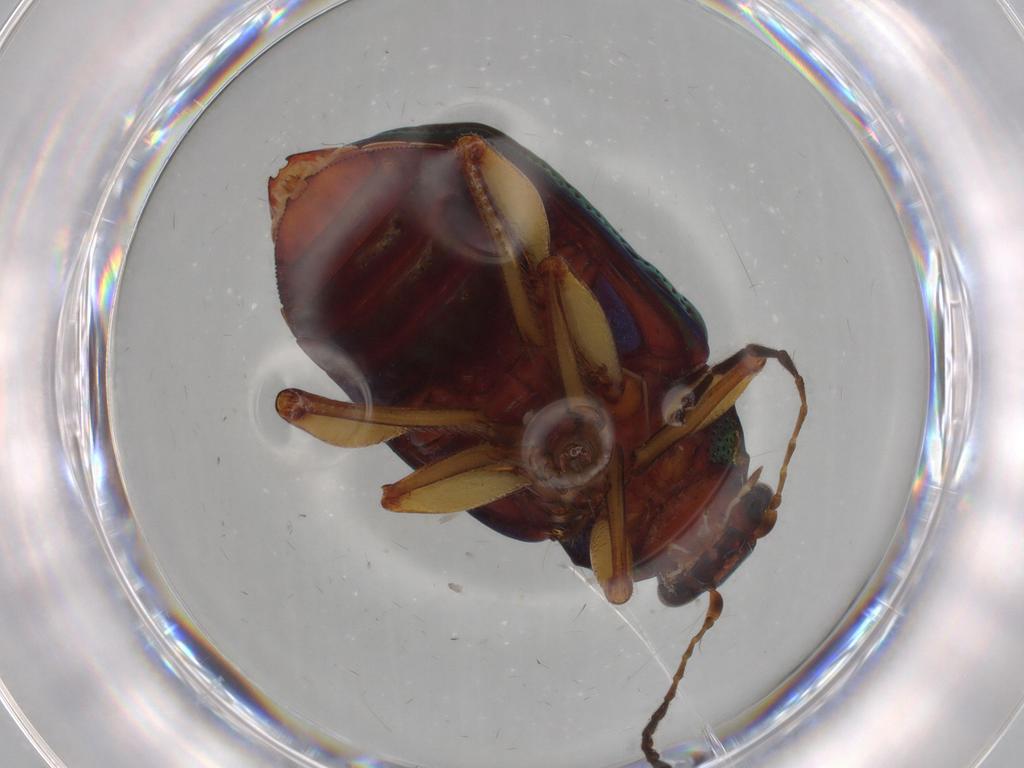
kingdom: Animalia
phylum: Arthropoda
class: Insecta
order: Coleoptera
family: Chrysomelidae
